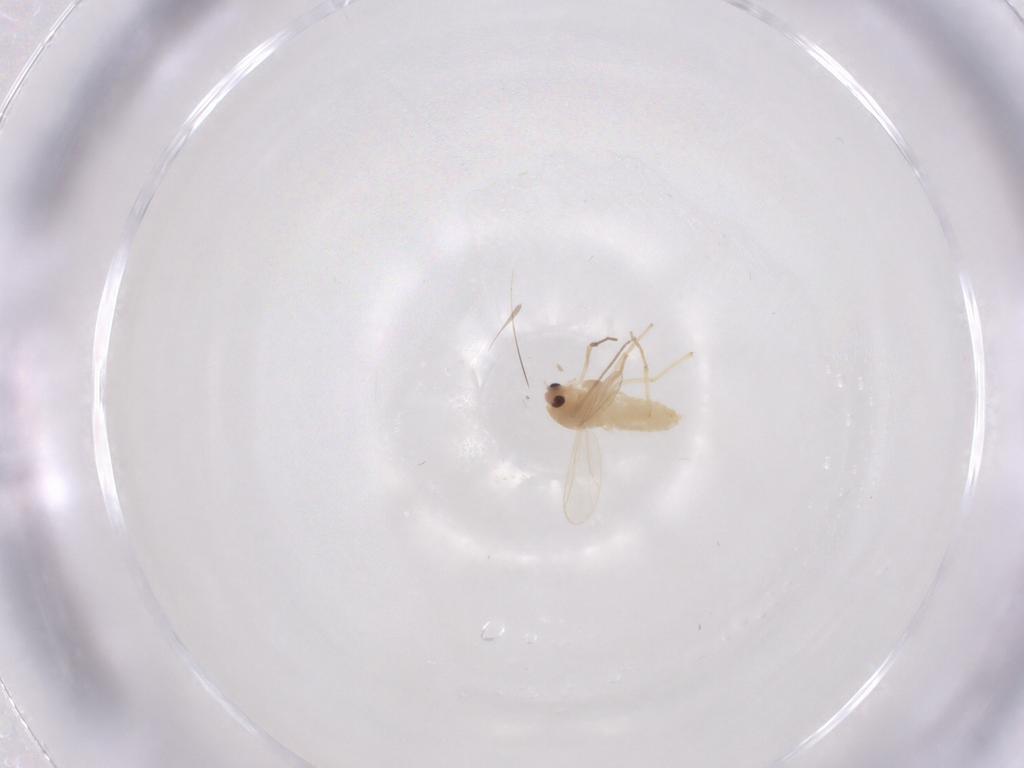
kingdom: Animalia
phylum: Arthropoda
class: Insecta
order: Diptera
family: Chironomidae
